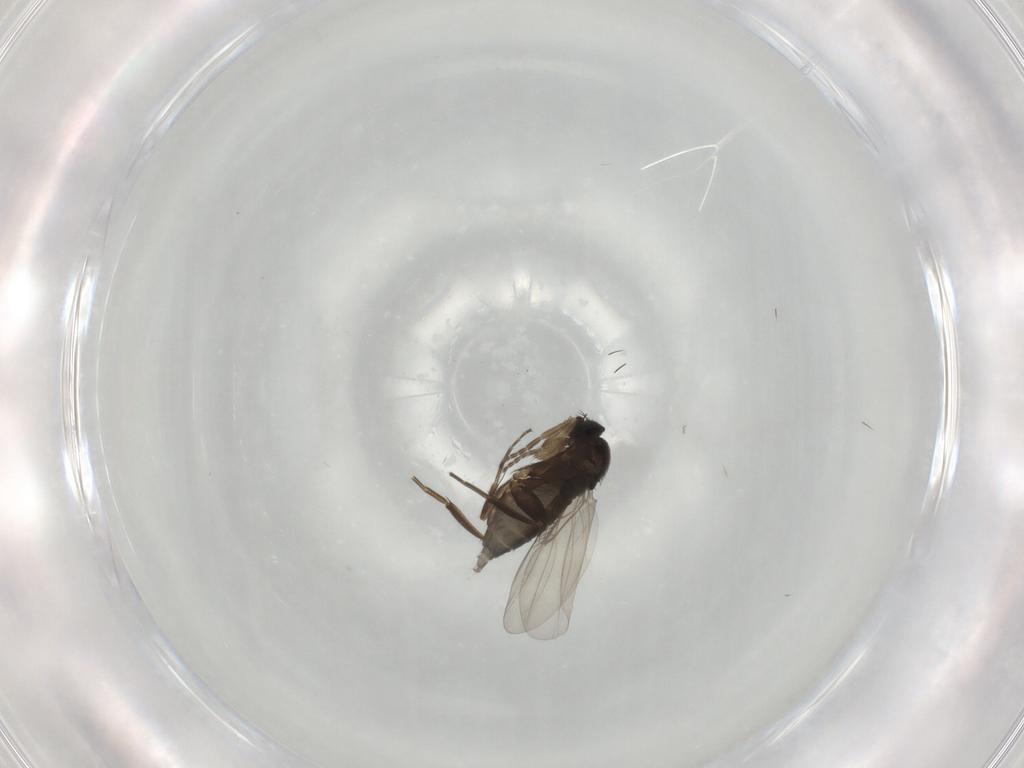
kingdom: Animalia
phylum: Arthropoda
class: Insecta
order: Diptera
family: Phoridae
